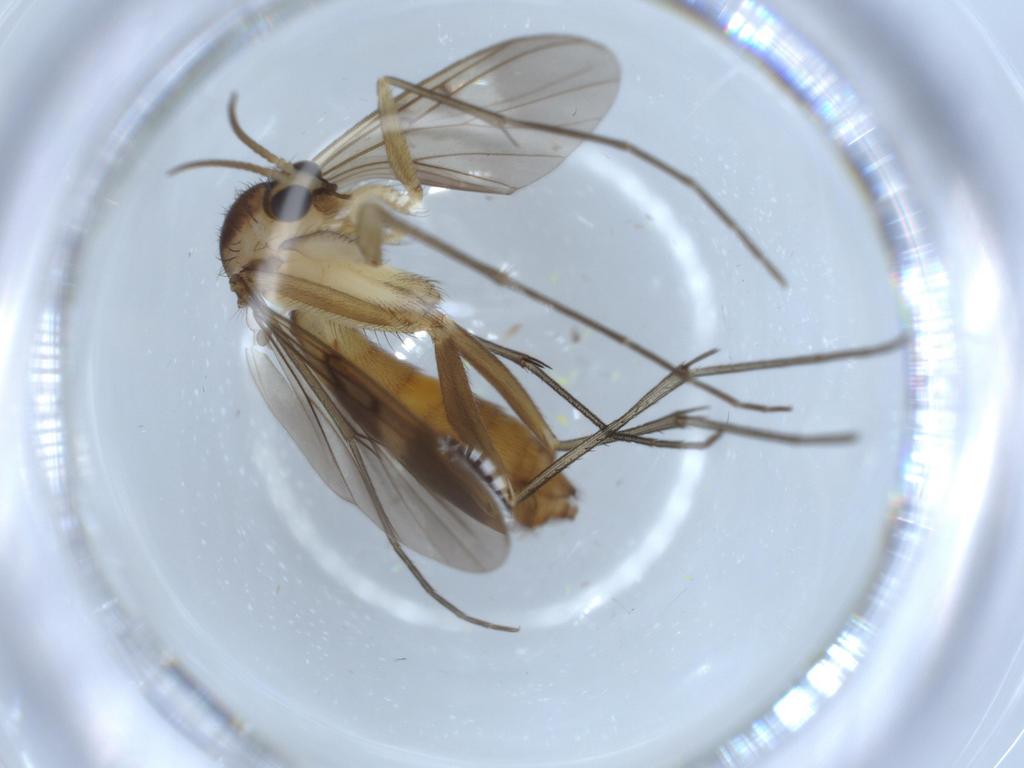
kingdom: Animalia
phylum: Arthropoda
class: Insecta
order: Diptera
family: Mycetophilidae
